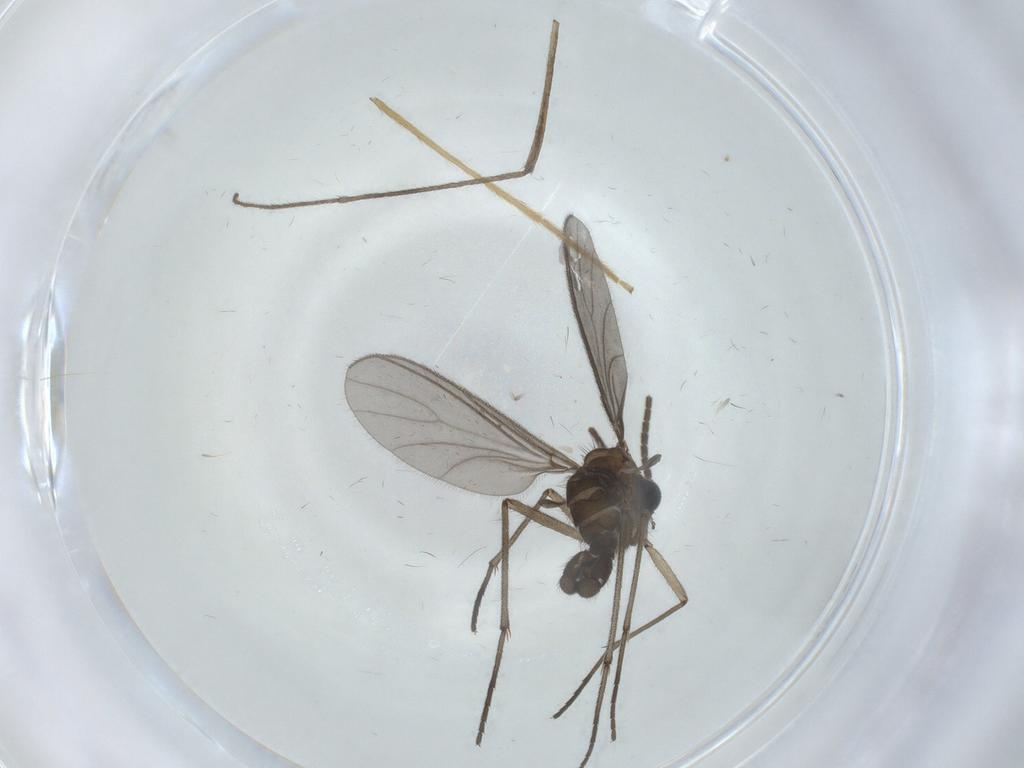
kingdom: Animalia
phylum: Arthropoda
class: Insecta
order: Diptera
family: Sciaridae
